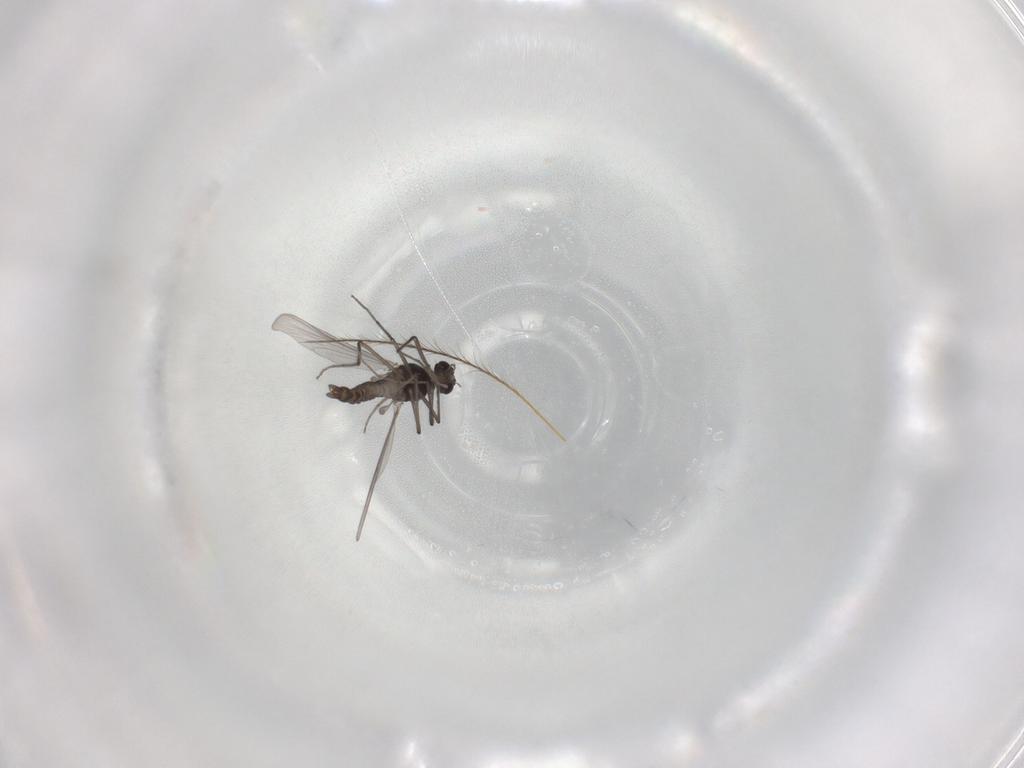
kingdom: Animalia
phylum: Arthropoda
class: Insecta
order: Diptera
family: Chironomidae
